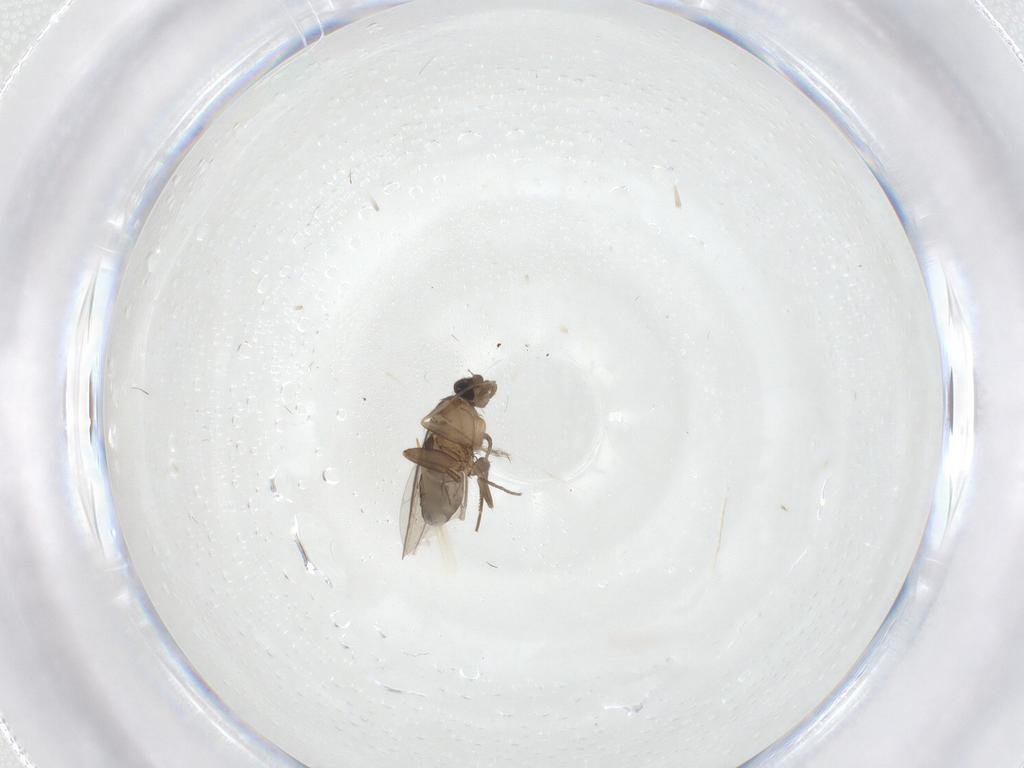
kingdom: Animalia
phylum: Arthropoda
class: Insecta
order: Diptera
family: Phoridae
